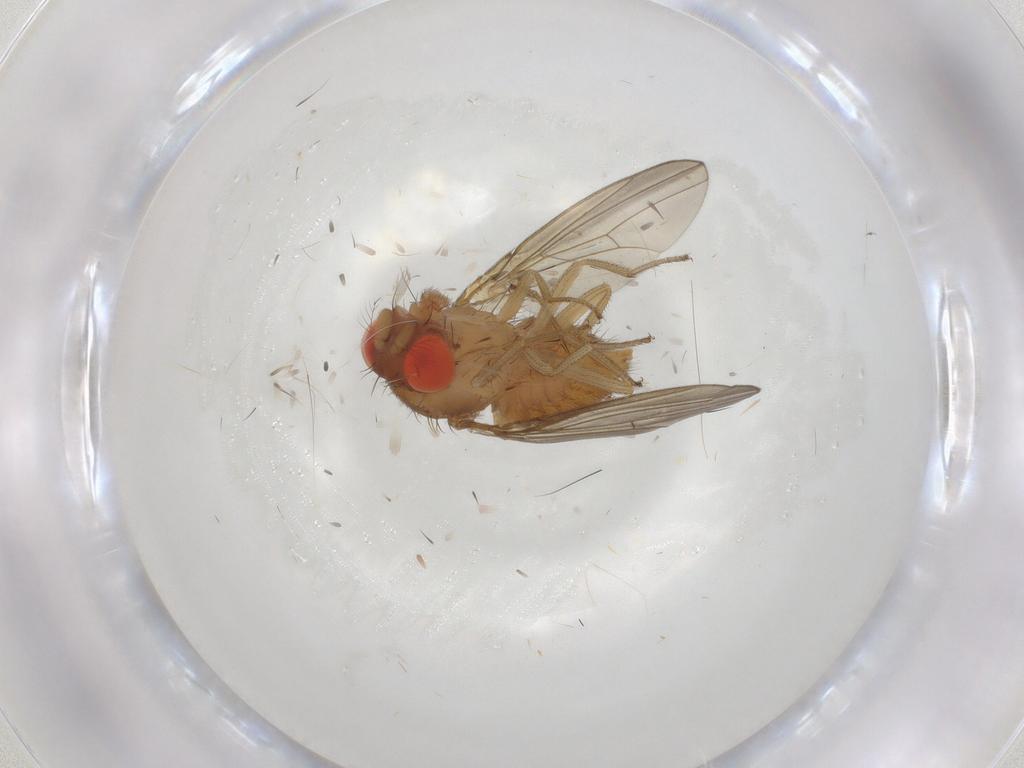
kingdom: Animalia
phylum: Arthropoda
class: Insecta
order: Diptera
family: Drosophilidae
